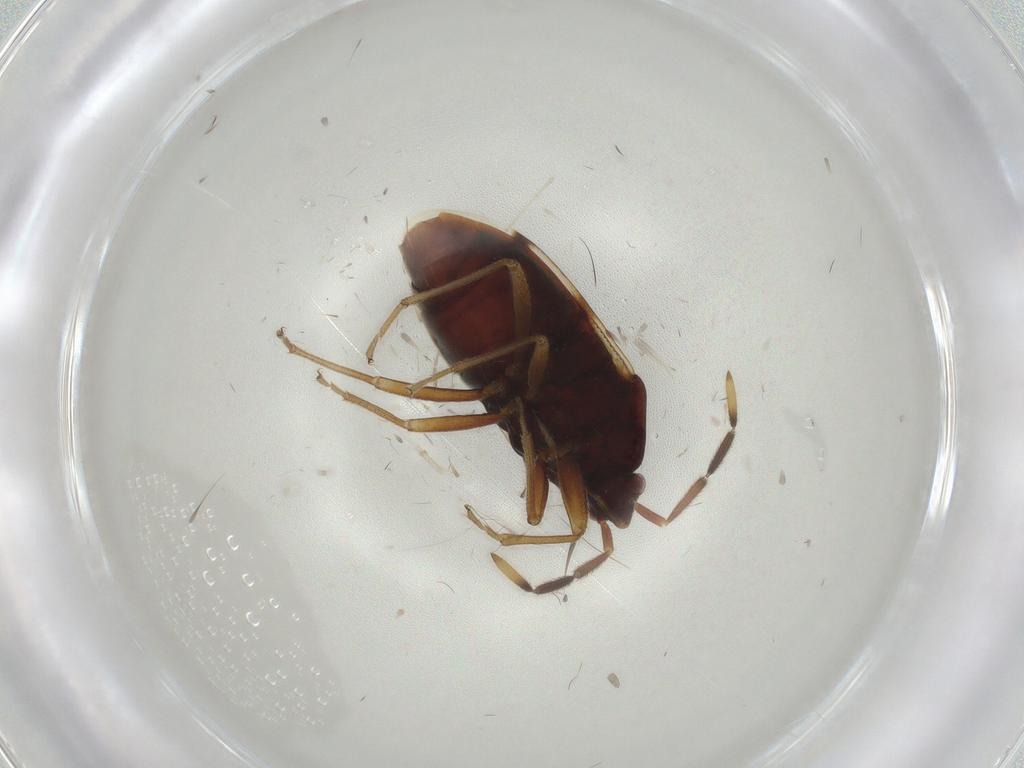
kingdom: Animalia
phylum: Arthropoda
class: Insecta
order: Hemiptera
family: Rhyparochromidae
